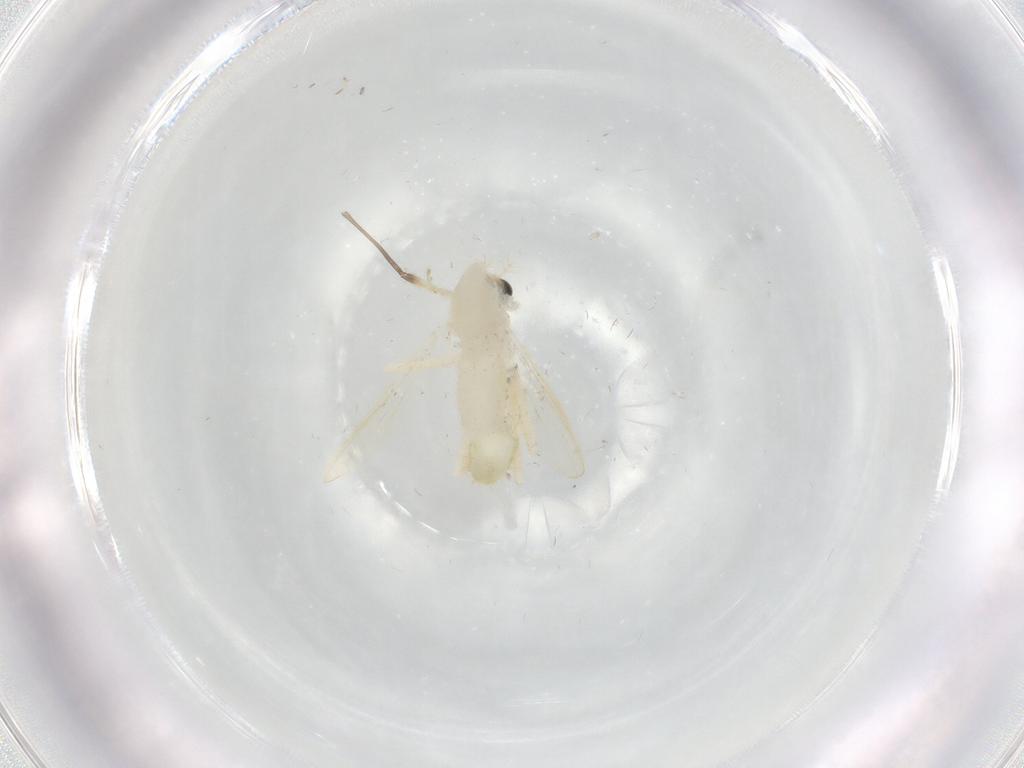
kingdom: Animalia
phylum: Arthropoda
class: Insecta
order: Diptera
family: Chironomidae
